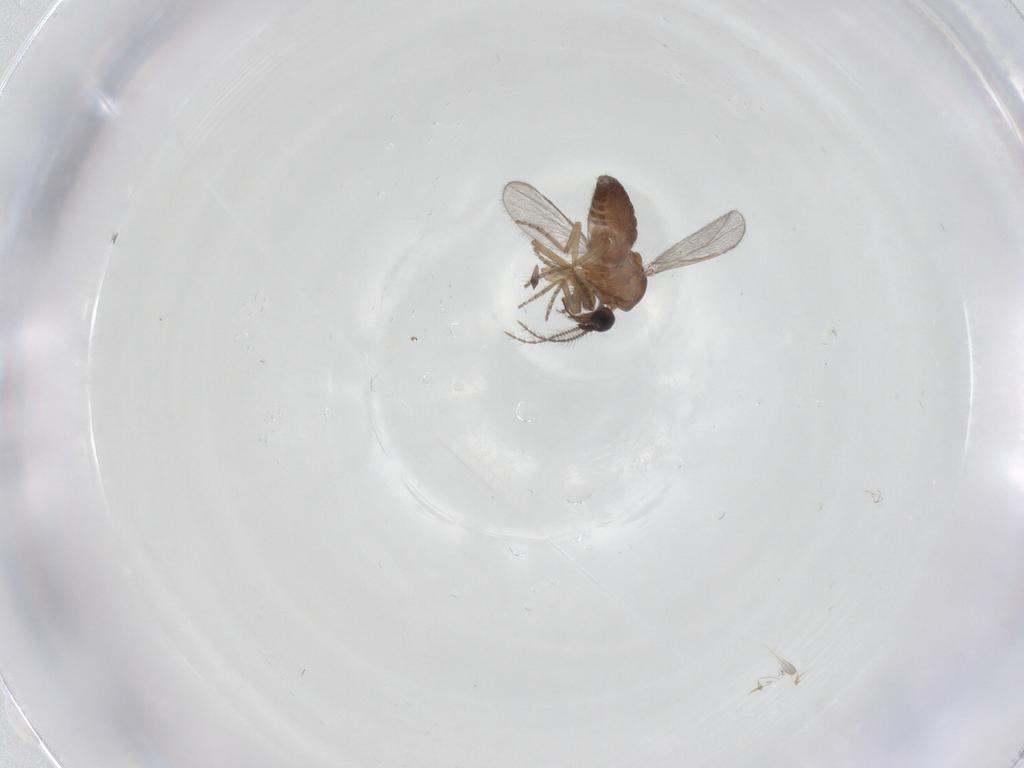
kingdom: Animalia
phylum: Arthropoda
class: Insecta
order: Diptera
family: Ceratopogonidae
